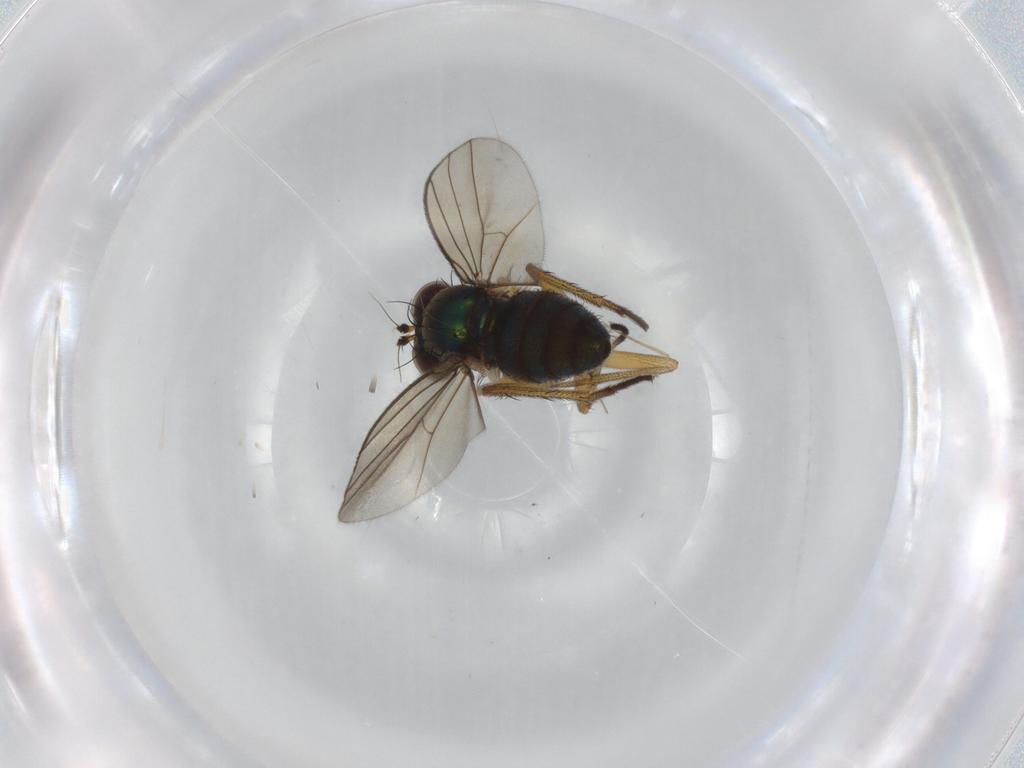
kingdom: Animalia
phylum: Arthropoda
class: Insecta
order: Diptera
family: Chironomidae
